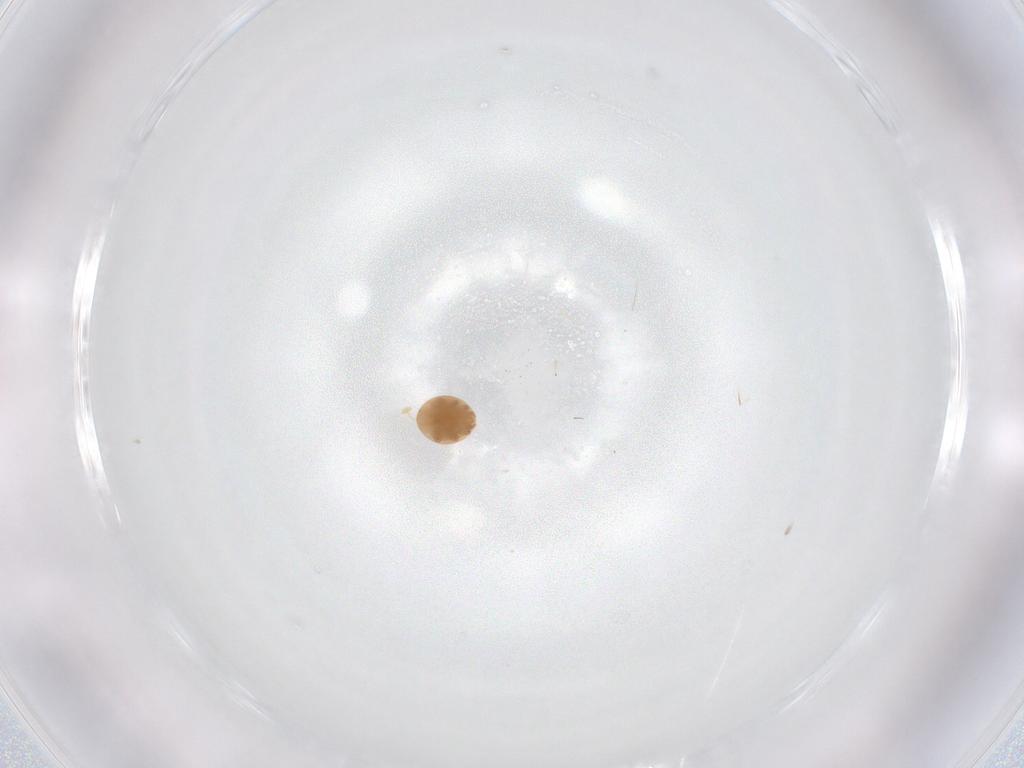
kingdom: Animalia
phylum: Arthropoda
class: Arachnida
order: Mesostigmata
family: Trematuridae
